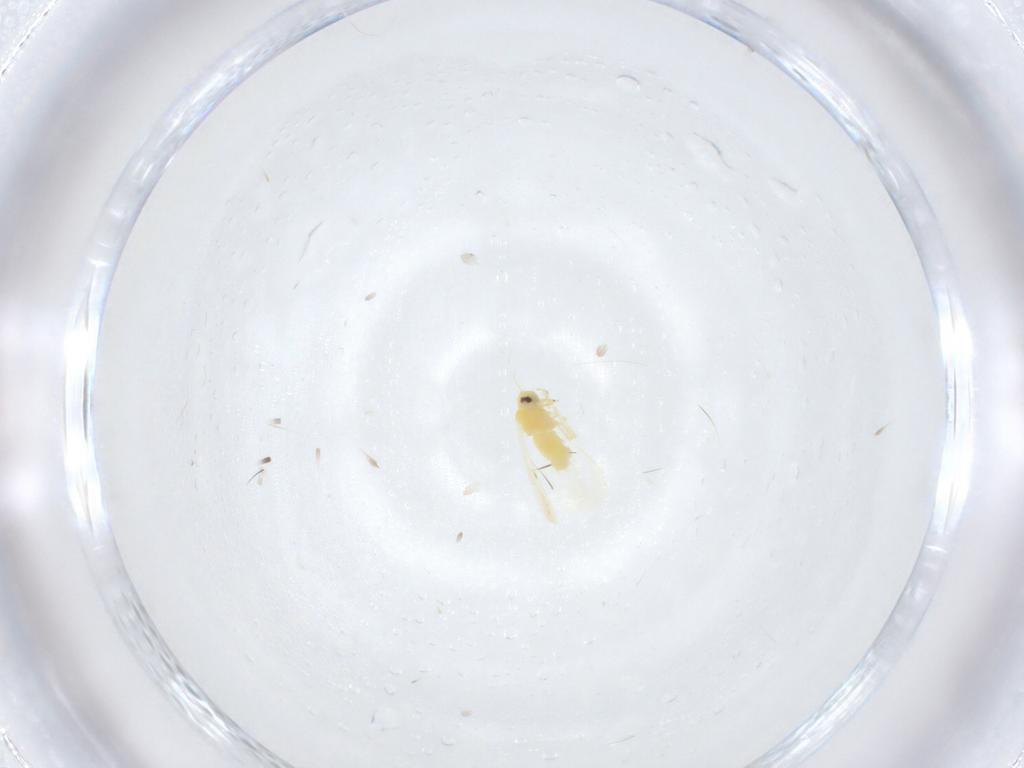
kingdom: Animalia
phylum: Arthropoda
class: Insecta
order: Hemiptera
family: Aleyrodidae
